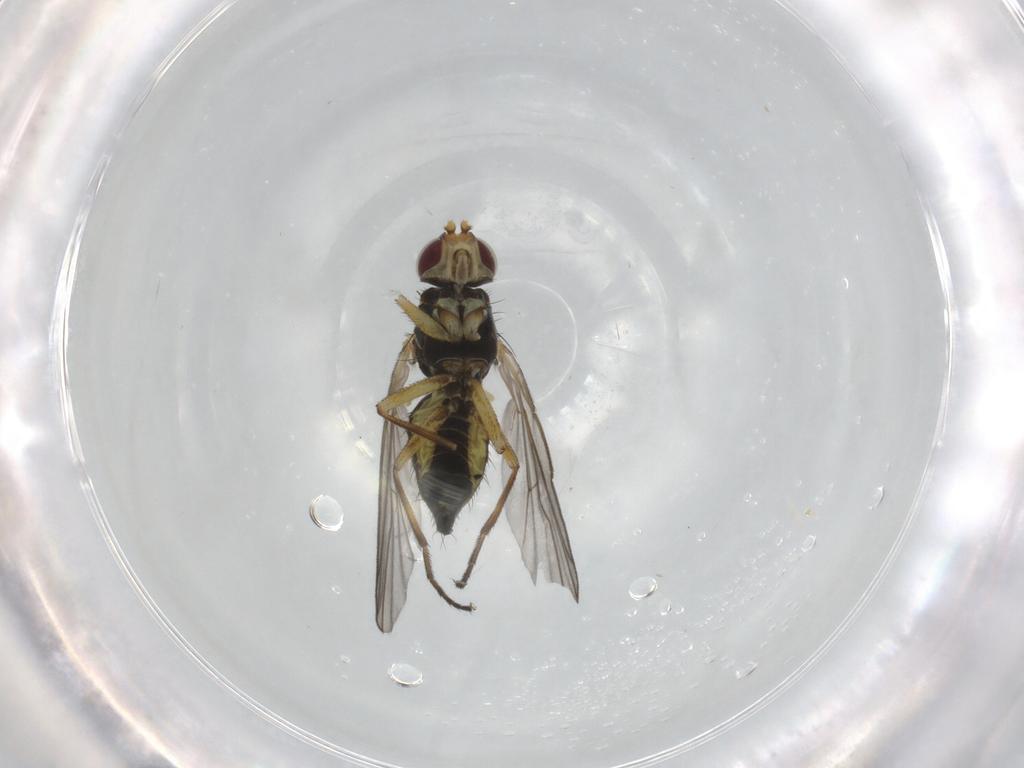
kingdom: Animalia
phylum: Arthropoda
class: Insecta
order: Diptera
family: Agromyzidae
